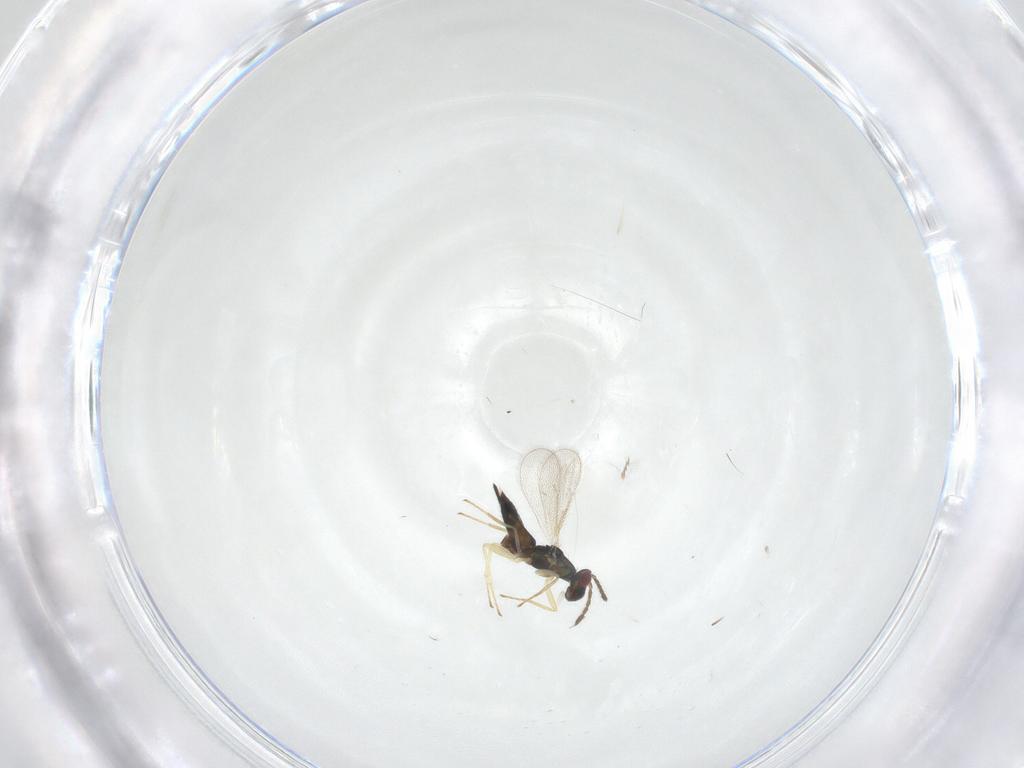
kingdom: Animalia
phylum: Arthropoda
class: Insecta
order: Hymenoptera
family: Eulophidae
